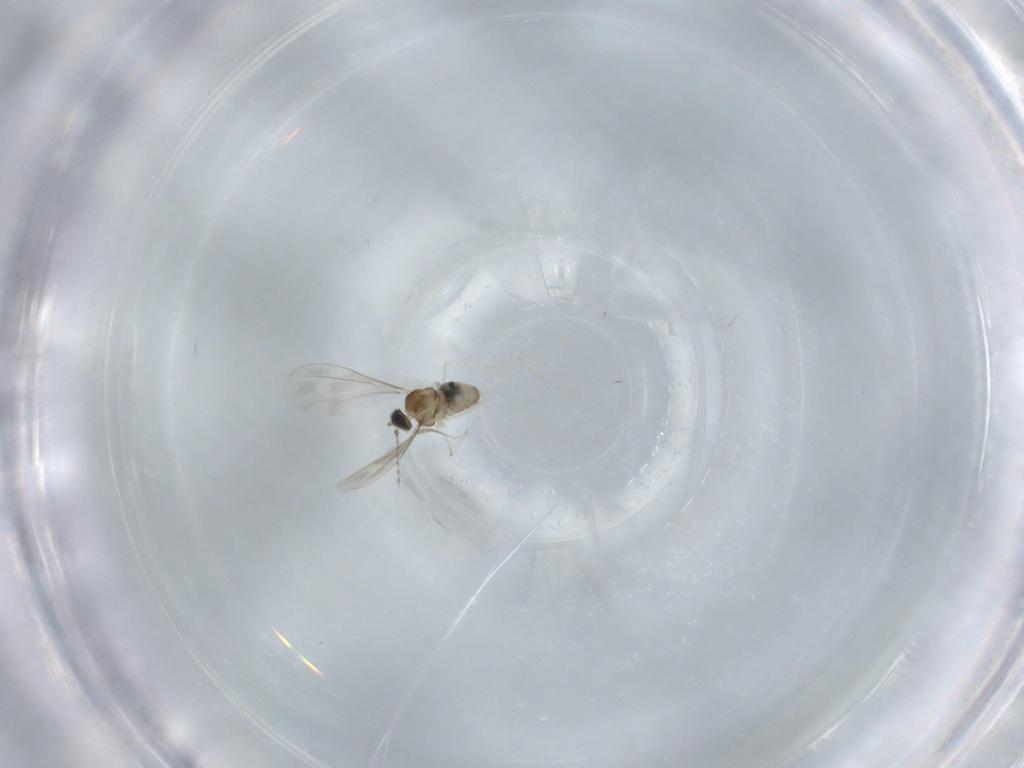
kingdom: Animalia
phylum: Arthropoda
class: Insecta
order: Diptera
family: Cecidomyiidae
